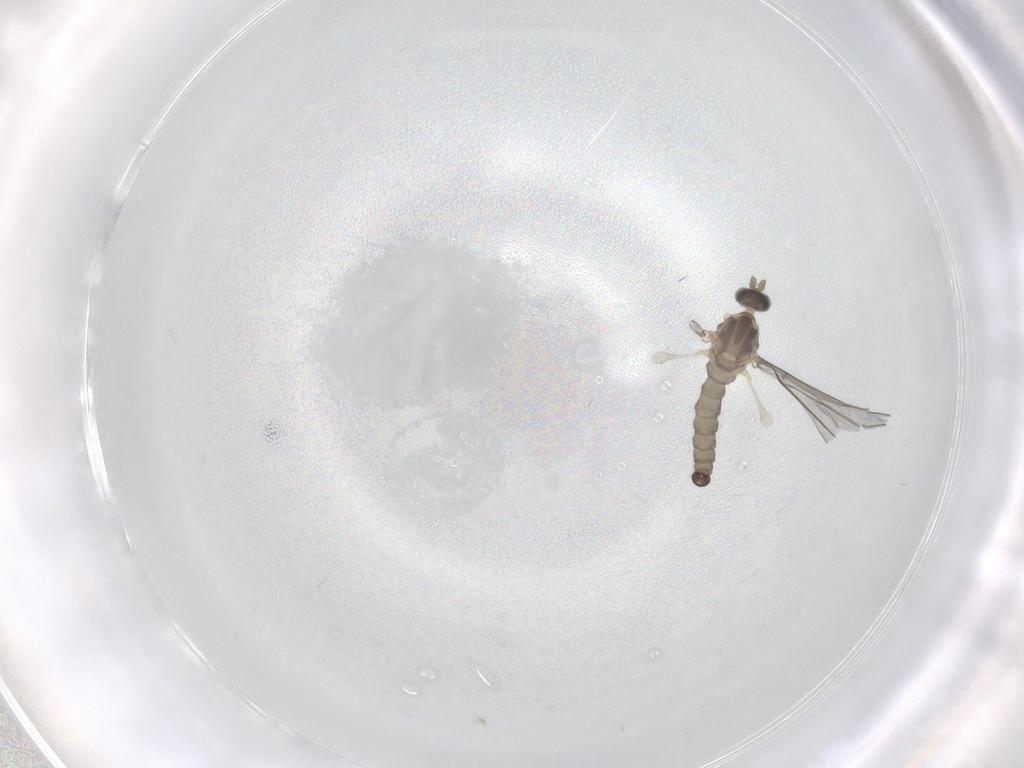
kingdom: Animalia
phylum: Arthropoda
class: Insecta
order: Diptera
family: Cecidomyiidae
